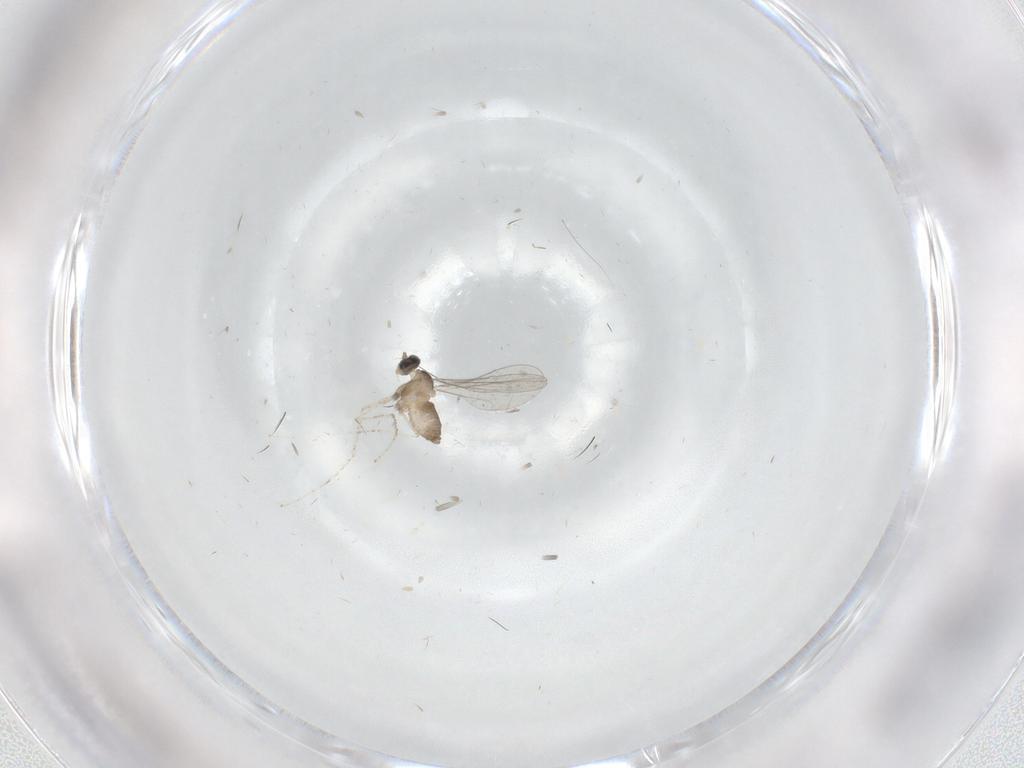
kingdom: Animalia
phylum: Arthropoda
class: Insecta
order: Diptera
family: Cecidomyiidae
